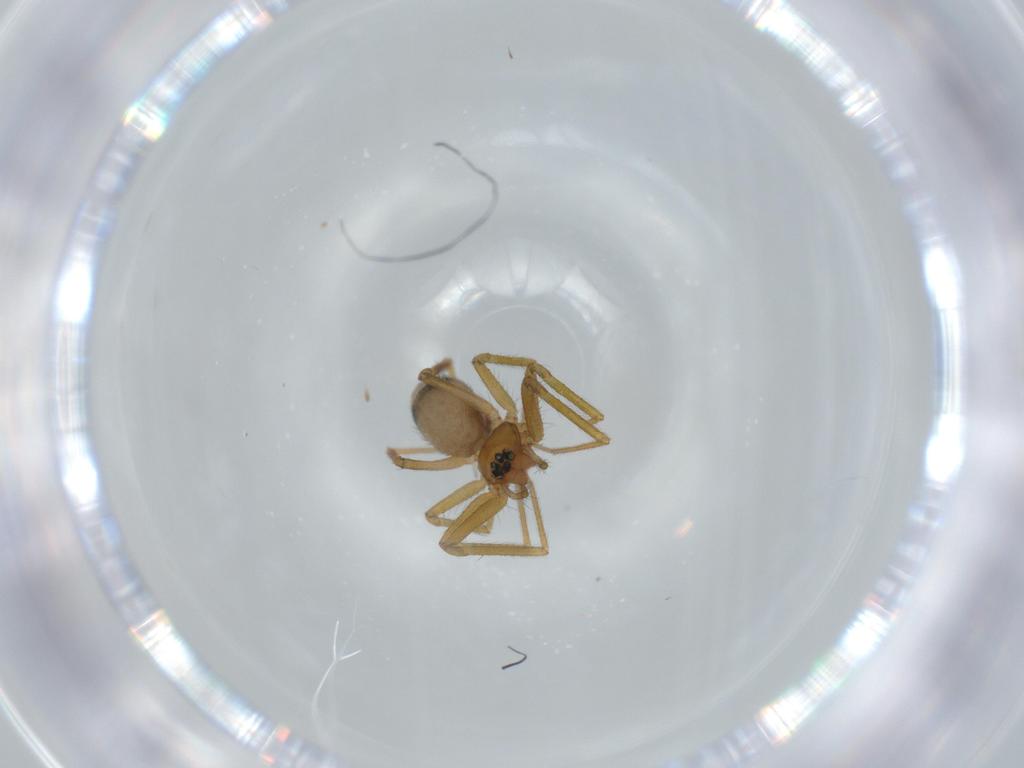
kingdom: Animalia
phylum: Arthropoda
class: Arachnida
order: Araneae
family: Linyphiidae
